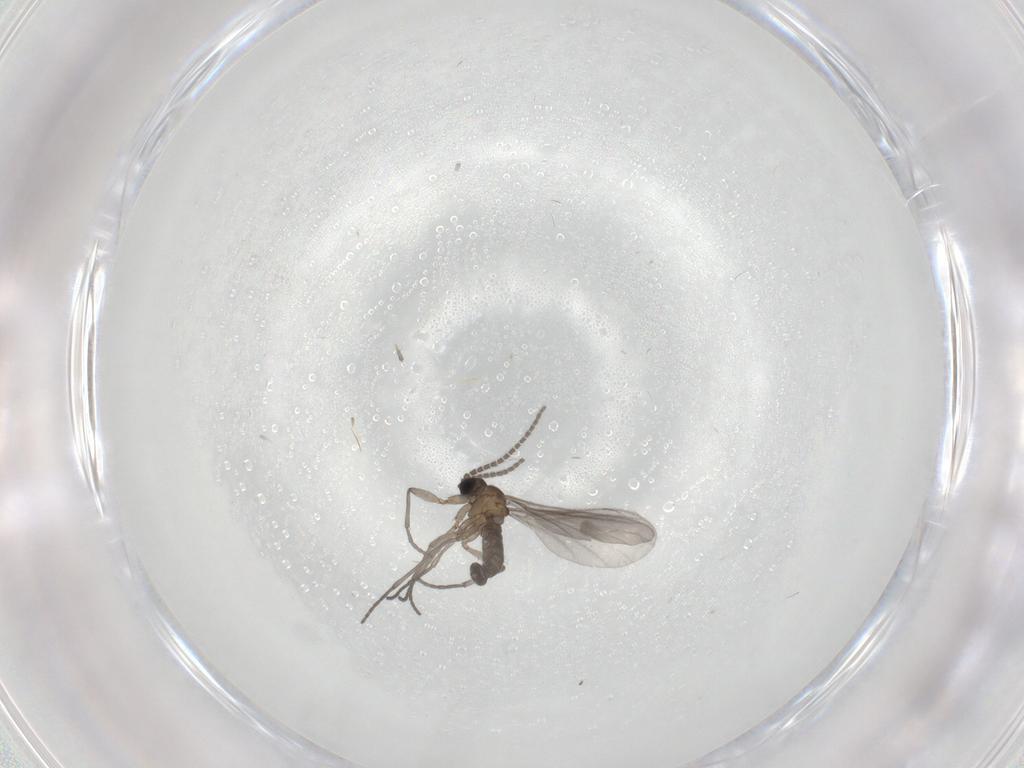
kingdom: Animalia
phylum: Arthropoda
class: Insecta
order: Diptera
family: Sciaridae
